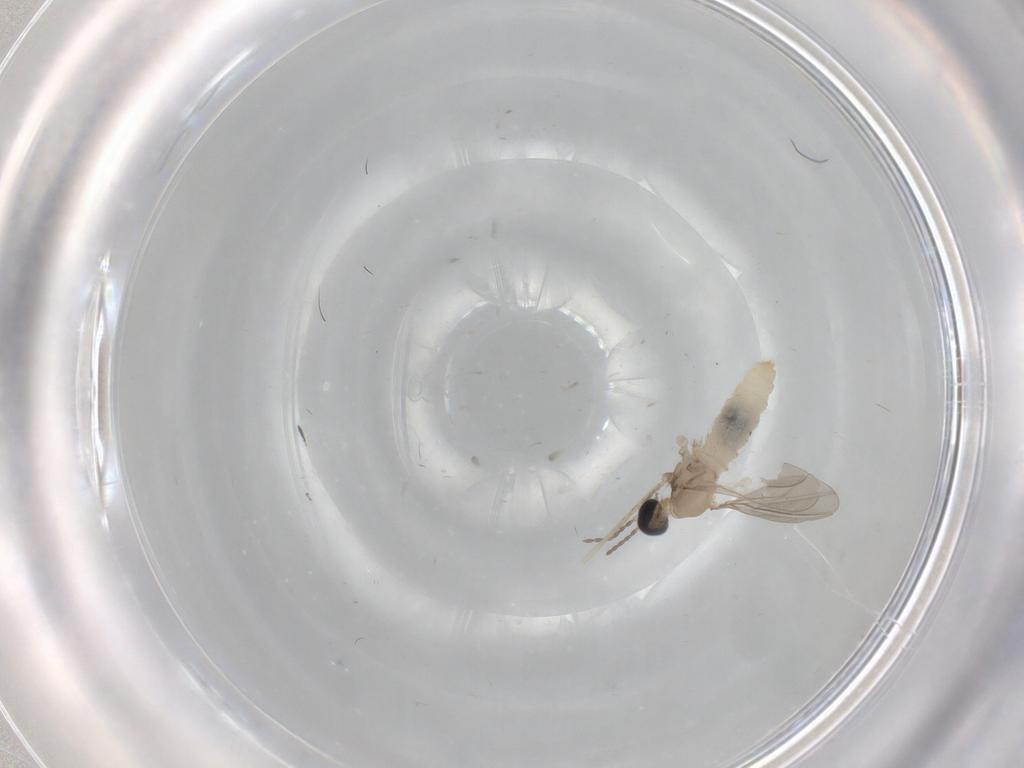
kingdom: Animalia
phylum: Arthropoda
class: Insecta
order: Diptera
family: Cecidomyiidae
